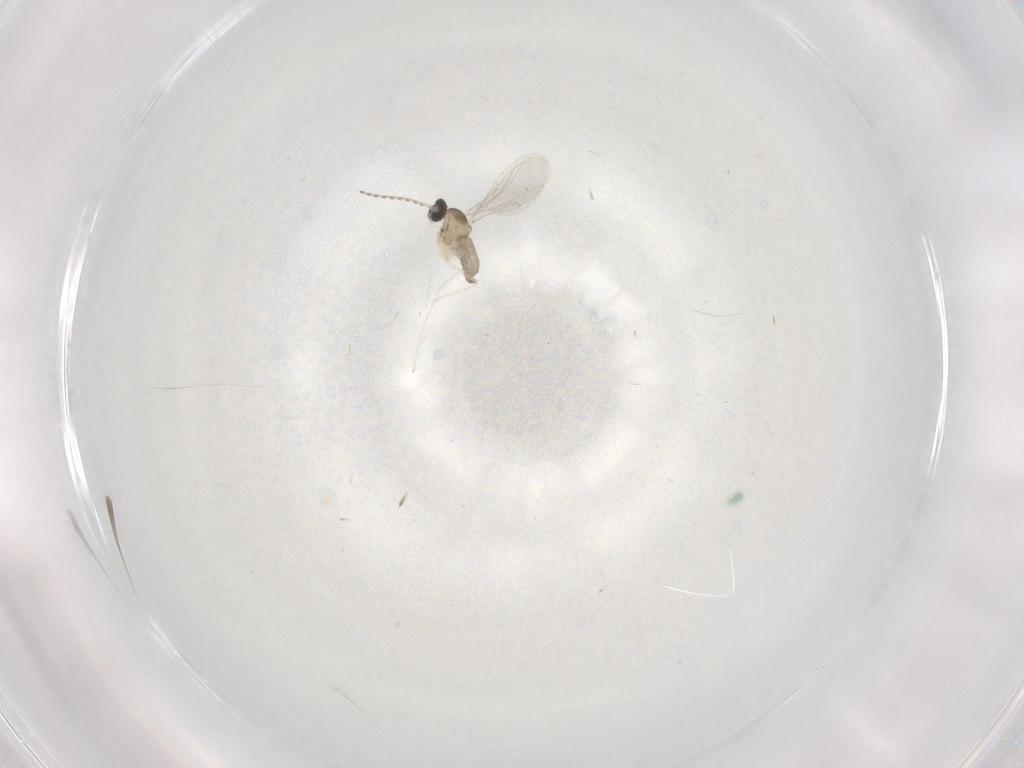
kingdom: Animalia
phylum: Arthropoda
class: Insecta
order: Diptera
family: Cecidomyiidae
